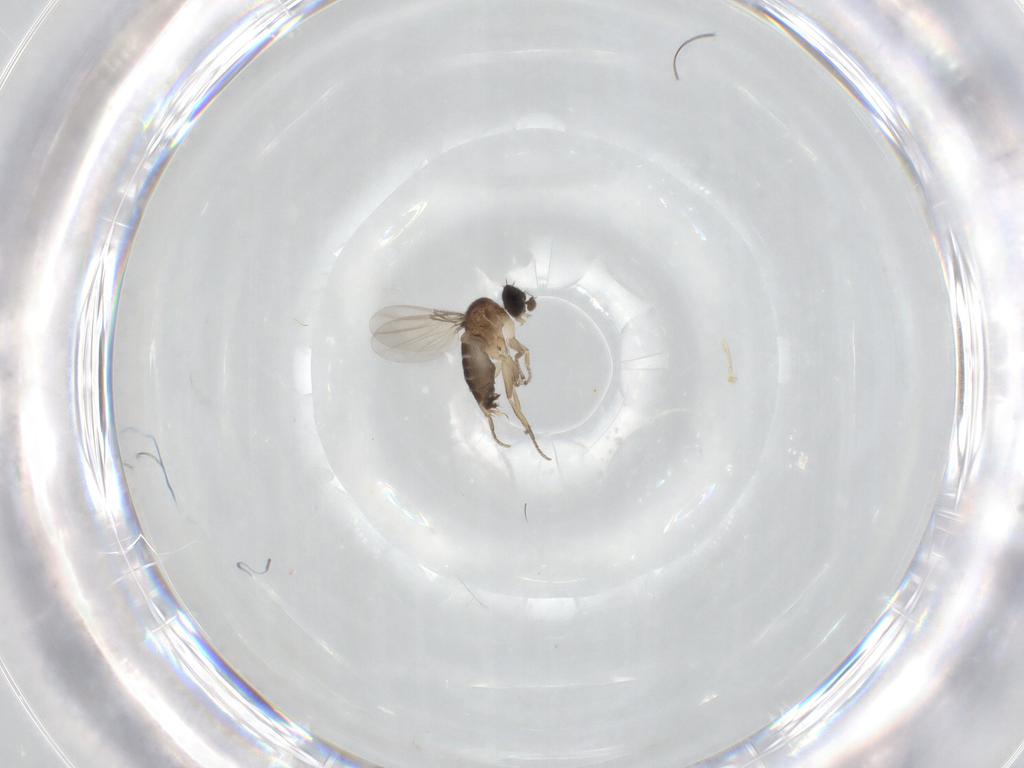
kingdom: Animalia
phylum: Arthropoda
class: Insecta
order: Diptera
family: Phoridae
